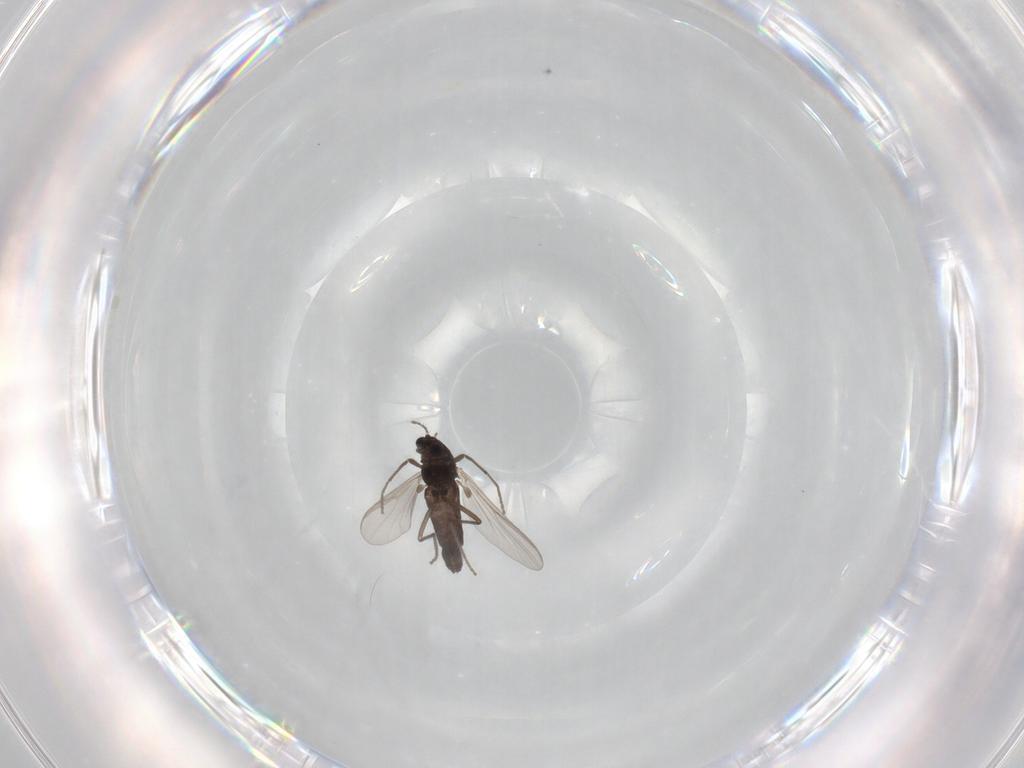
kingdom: Animalia
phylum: Arthropoda
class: Insecta
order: Diptera
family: Chironomidae
